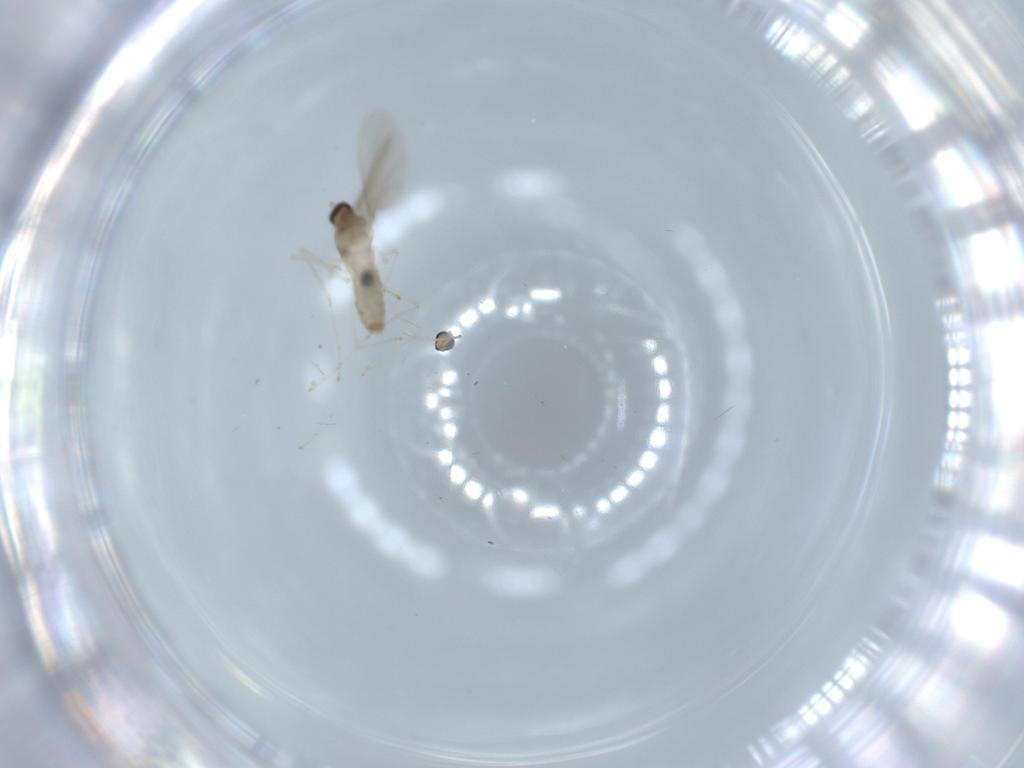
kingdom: Animalia
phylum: Arthropoda
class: Insecta
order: Diptera
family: Cecidomyiidae
